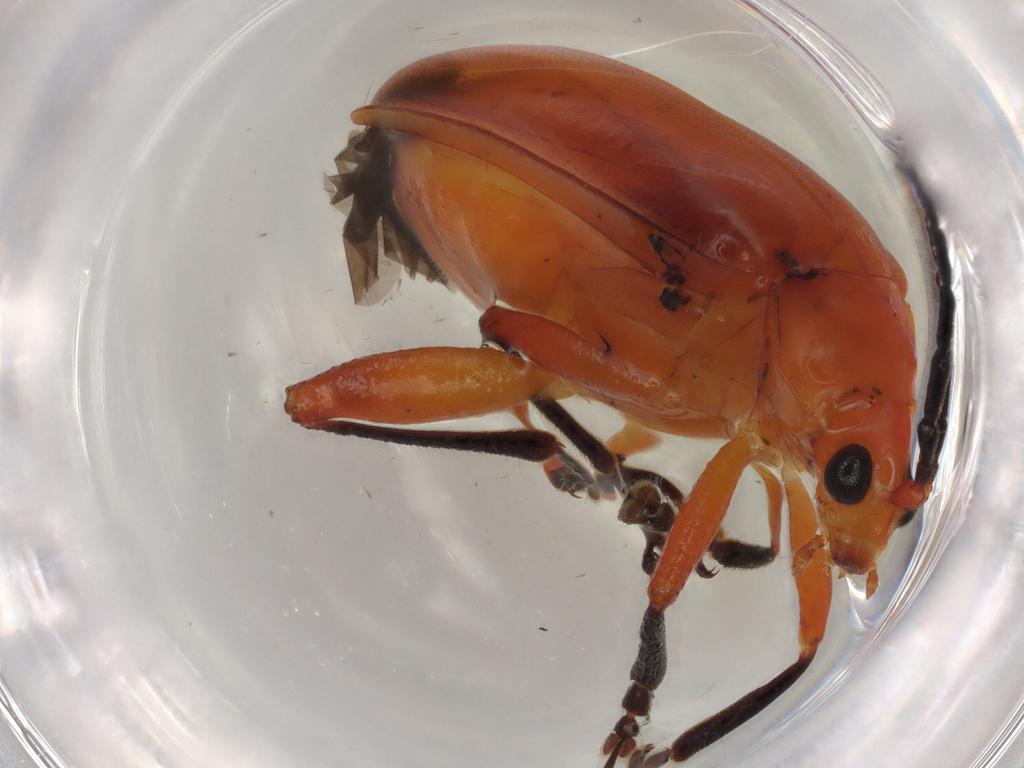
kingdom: Animalia
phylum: Arthropoda
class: Insecta
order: Coleoptera
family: Chrysomelidae
